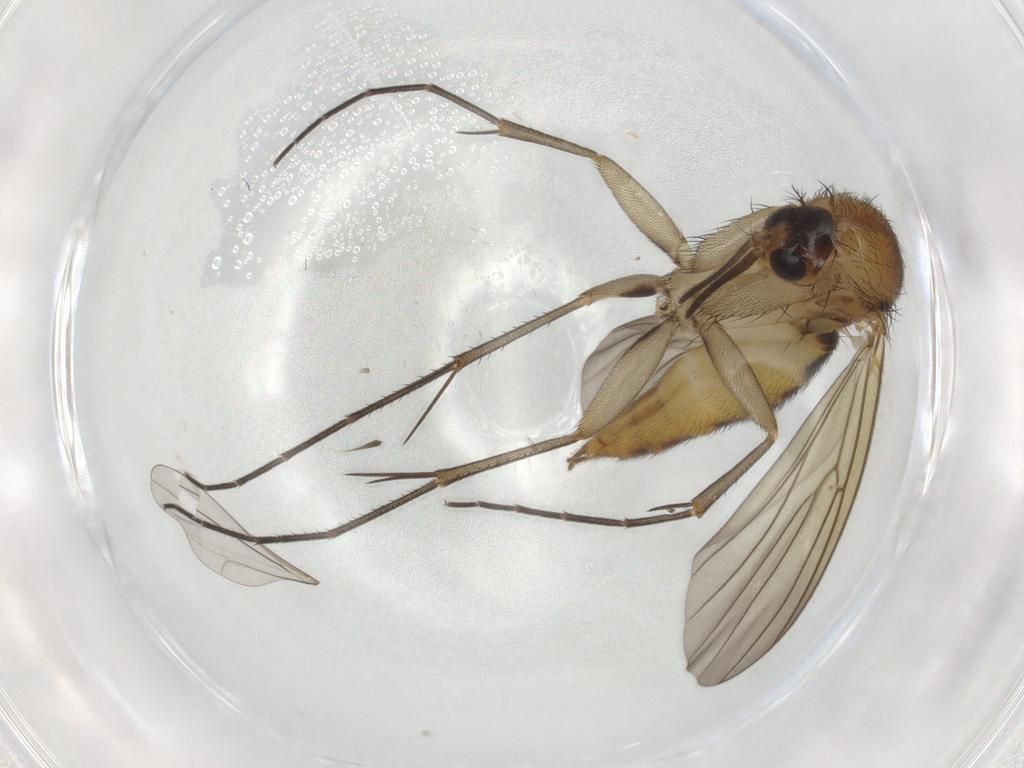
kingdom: Animalia
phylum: Arthropoda
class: Insecta
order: Diptera
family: Mycetophilidae
